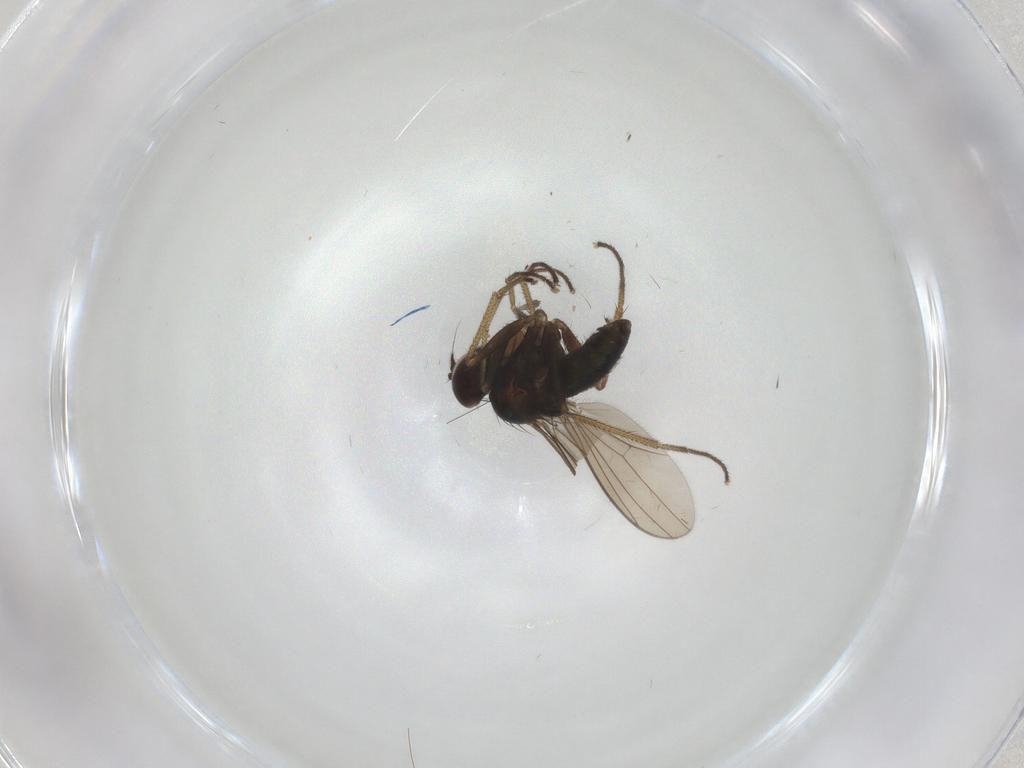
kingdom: Animalia
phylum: Arthropoda
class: Insecta
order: Diptera
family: Dolichopodidae
